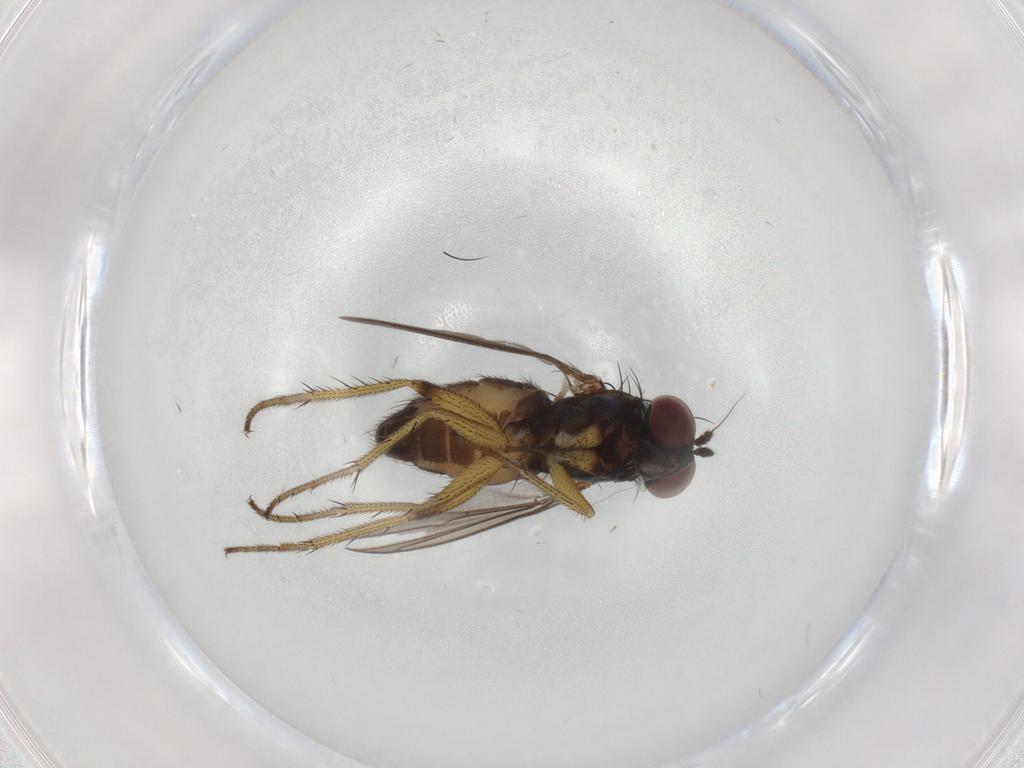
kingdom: Animalia
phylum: Arthropoda
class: Insecta
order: Diptera
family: Dolichopodidae
